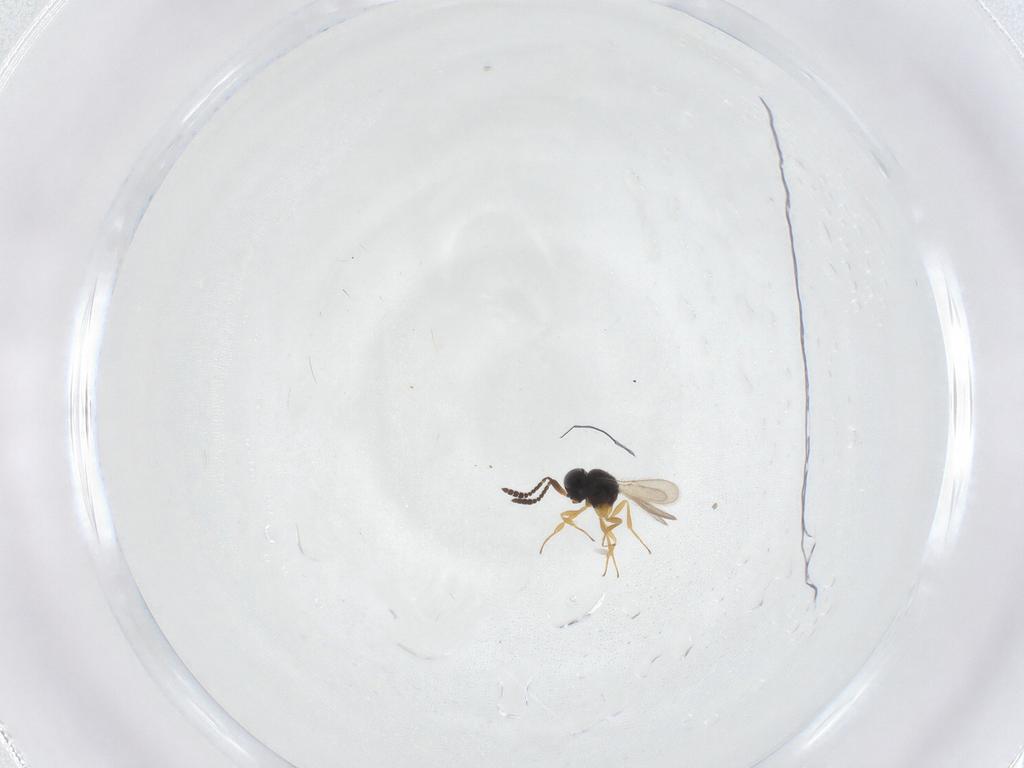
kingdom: Animalia
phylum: Arthropoda
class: Insecta
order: Hymenoptera
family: Scelionidae
